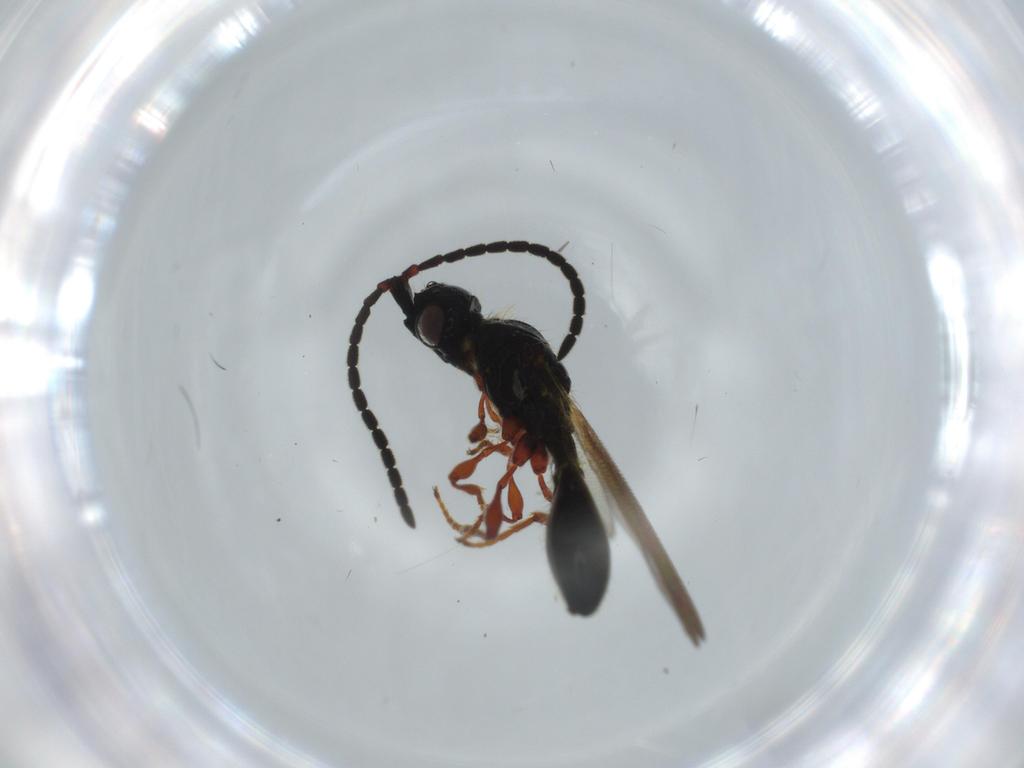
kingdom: Animalia
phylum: Arthropoda
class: Insecta
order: Hymenoptera
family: Diapriidae
